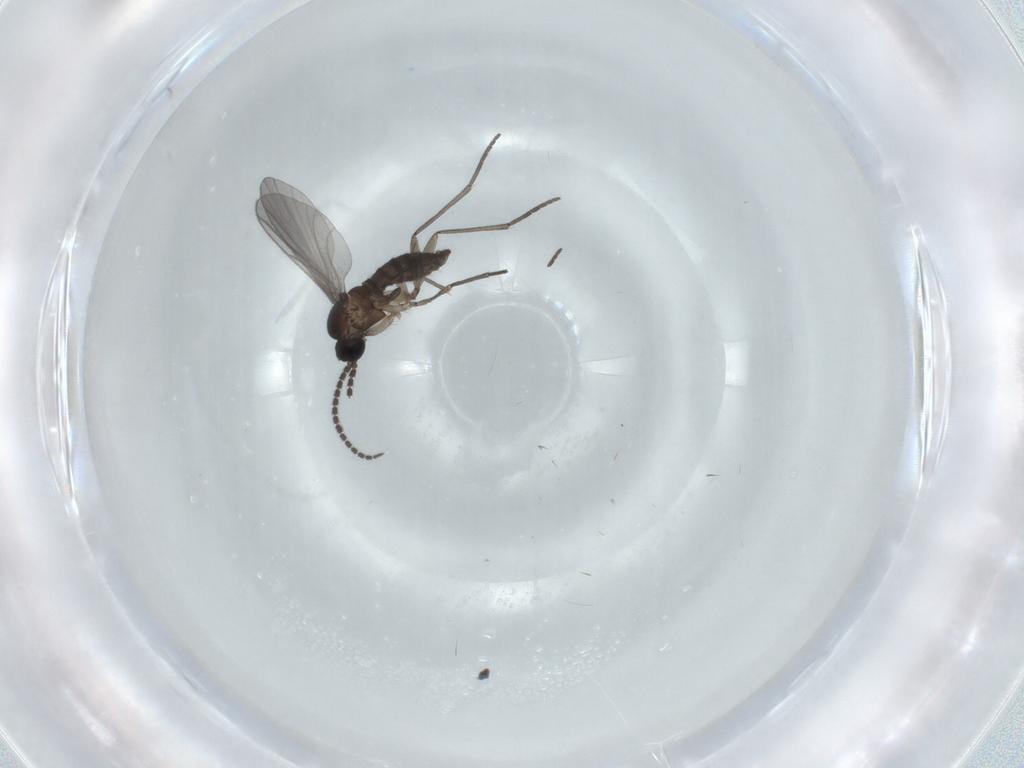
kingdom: Animalia
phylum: Arthropoda
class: Insecta
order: Diptera
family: Sciaridae
